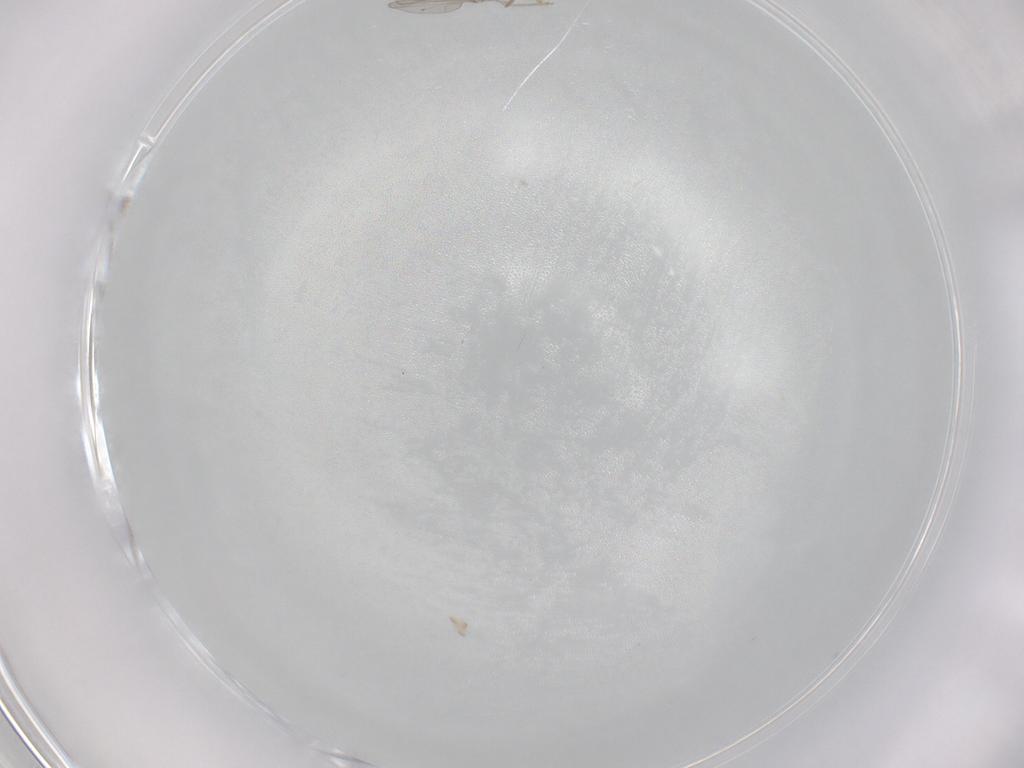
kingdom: Animalia
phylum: Arthropoda
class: Insecta
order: Diptera
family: Cecidomyiidae
